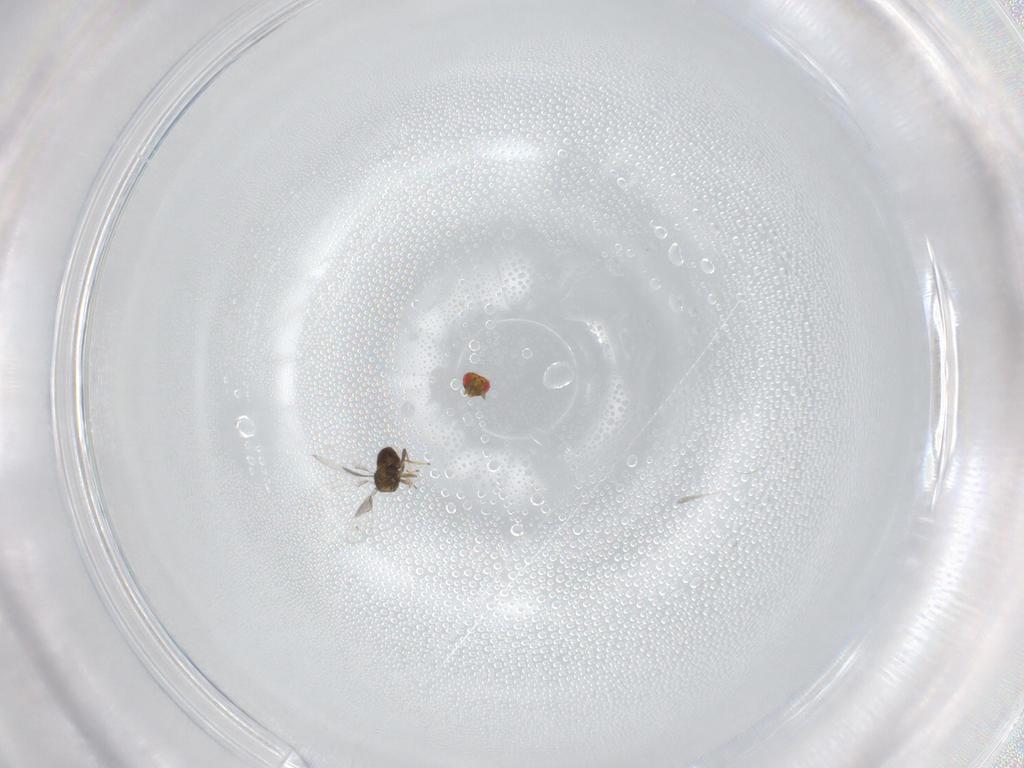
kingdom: Animalia
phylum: Arthropoda
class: Insecta
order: Hymenoptera
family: Trichogrammatidae
